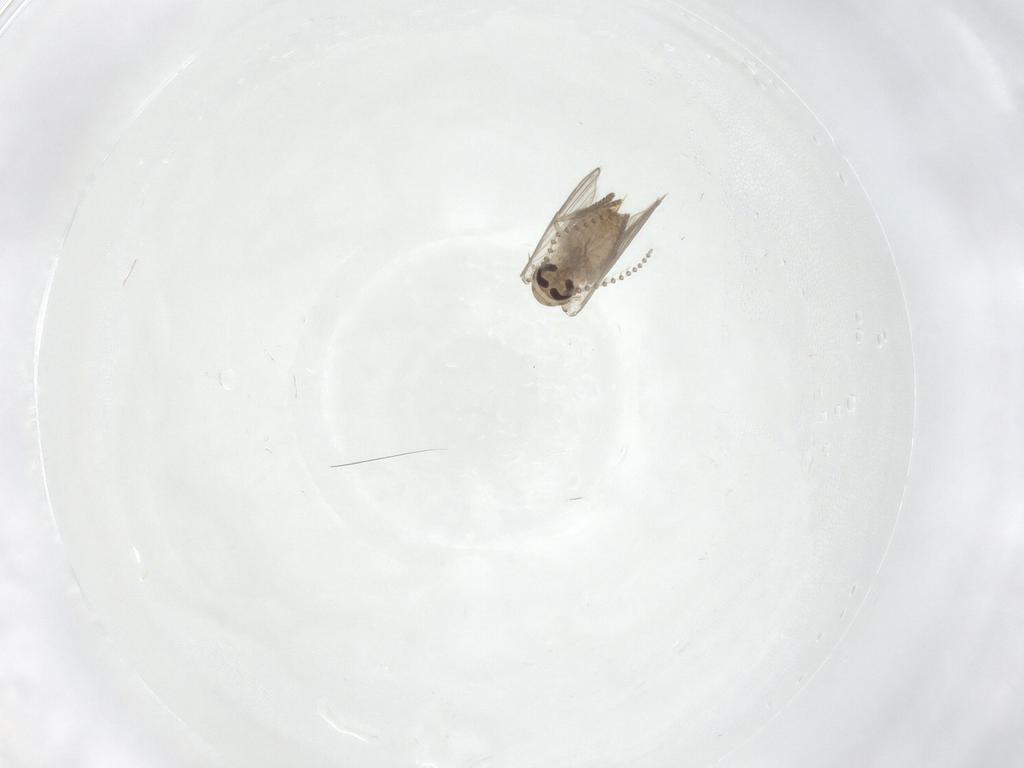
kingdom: Animalia
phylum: Arthropoda
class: Insecta
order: Diptera
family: Psychodidae
